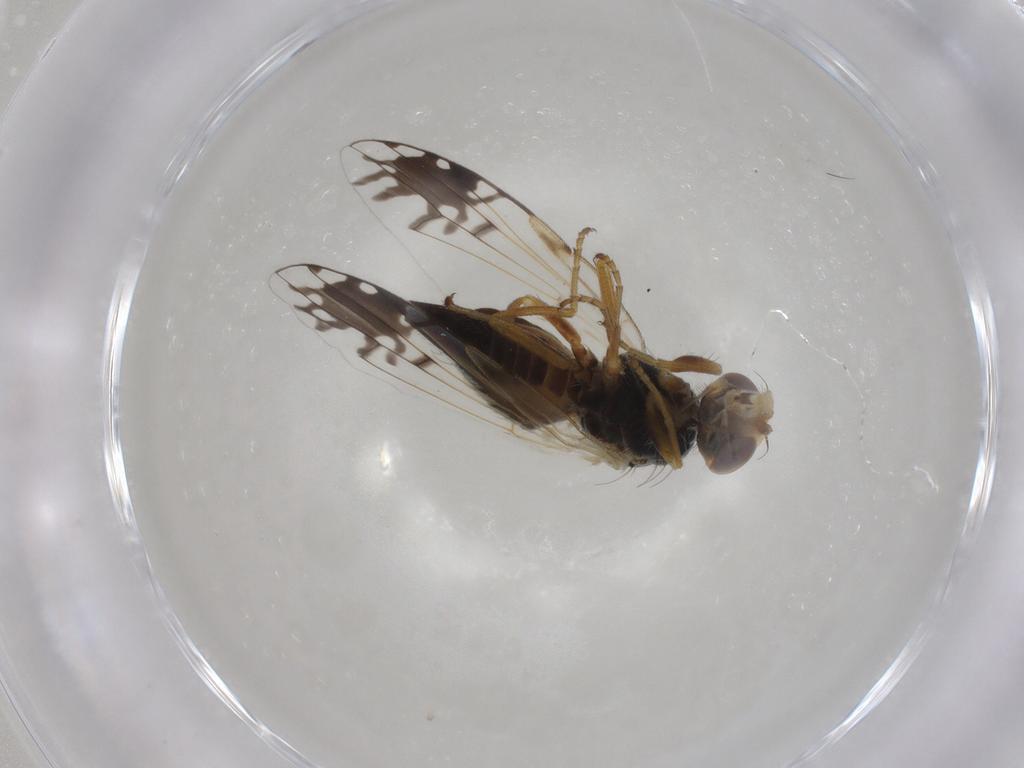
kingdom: Animalia
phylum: Arthropoda
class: Insecta
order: Diptera
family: Tephritidae
